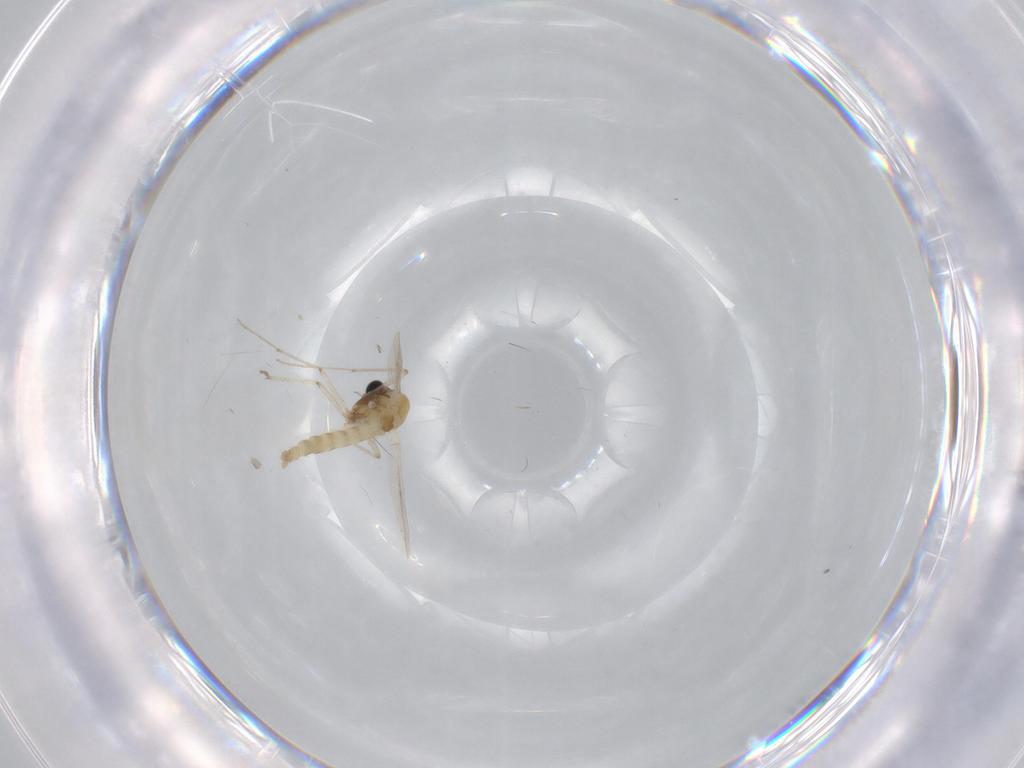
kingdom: Animalia
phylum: Arthropoda
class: Insecta
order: Diptera
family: Chironomidae
